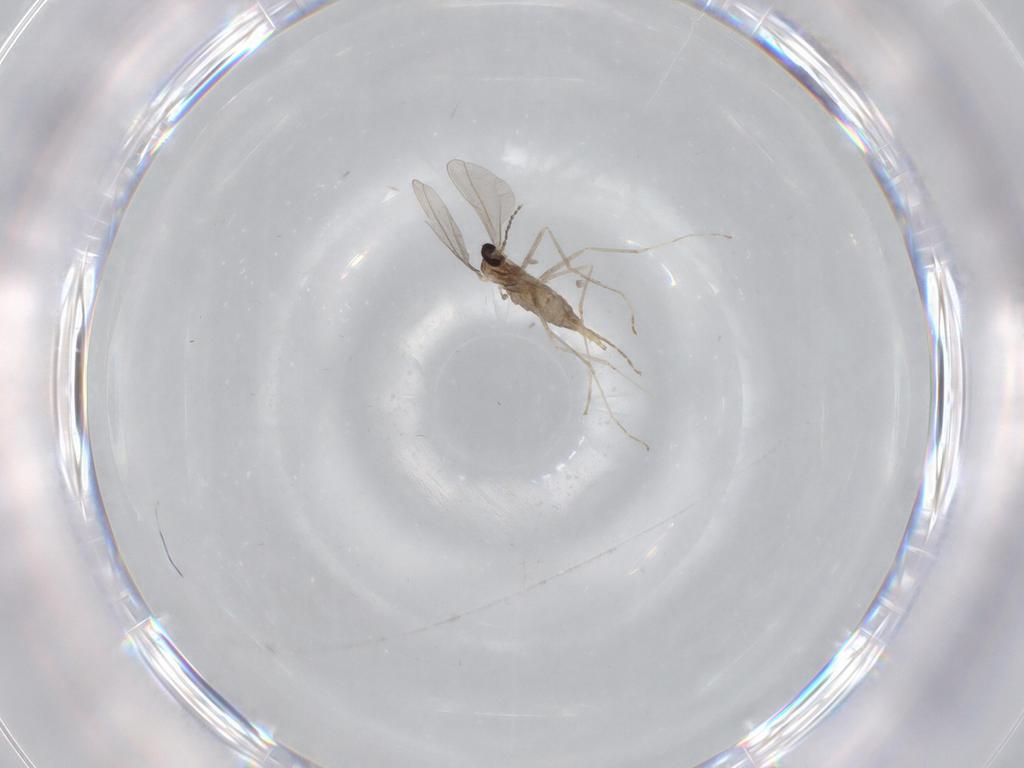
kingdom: Animalia
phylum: Arthropoda
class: Insecta
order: Diptera
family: Cecidomyiidae
